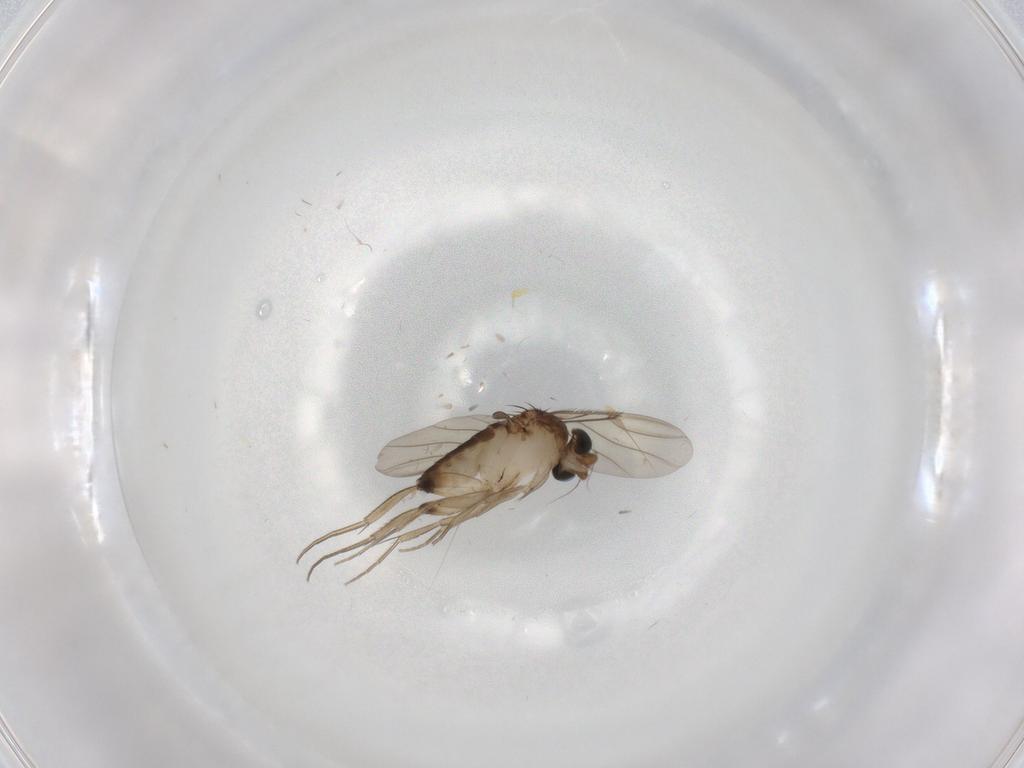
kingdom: Animalia
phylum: Arthropoda
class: Insecta
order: Diptera
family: Phoridae
